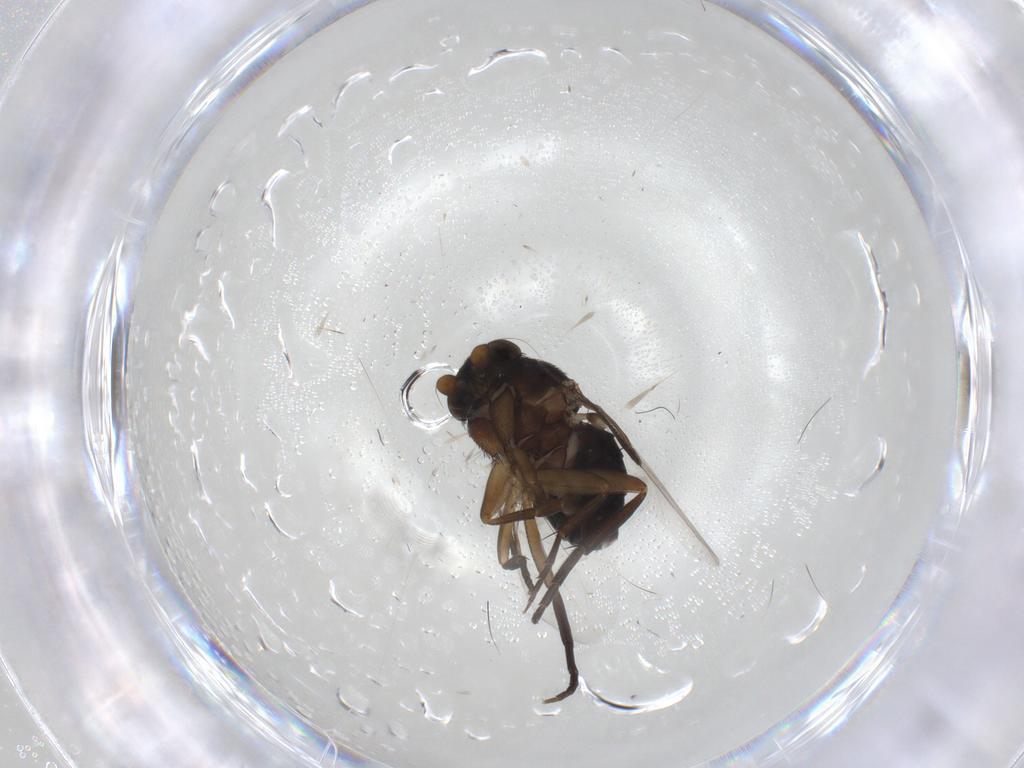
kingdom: Animalia
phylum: Arthropoda
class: Insecta
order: Diptera
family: Phoridae
